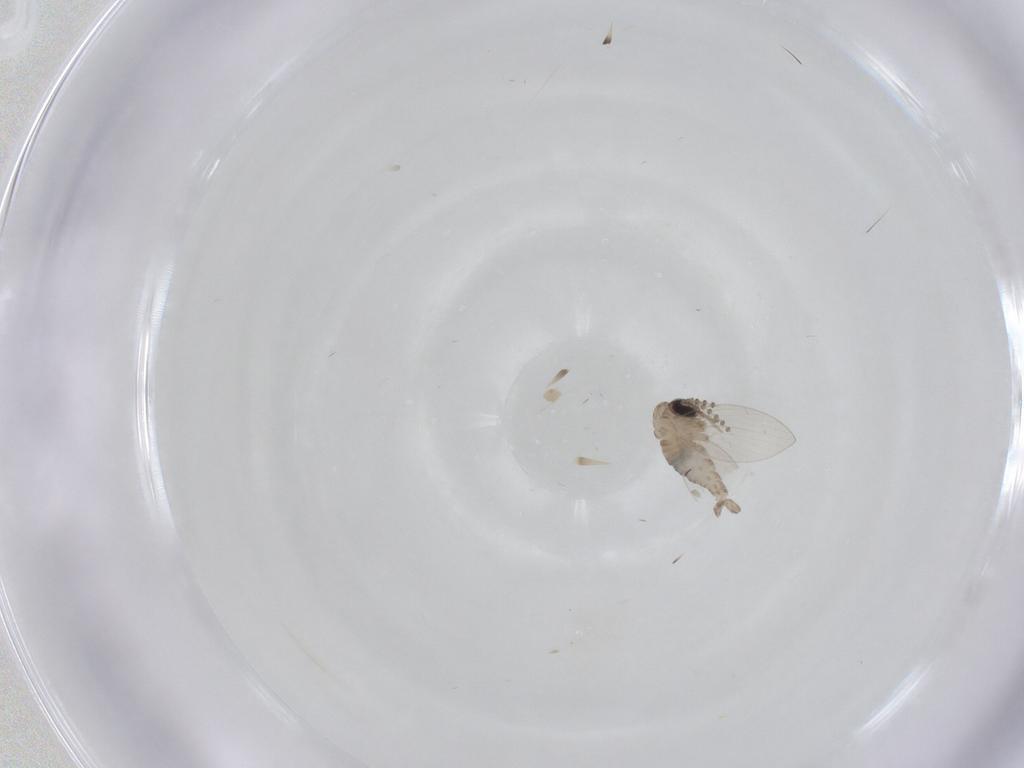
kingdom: Animalia
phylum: Arthropoda
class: Insecta
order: Diptera
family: Psychodidae
